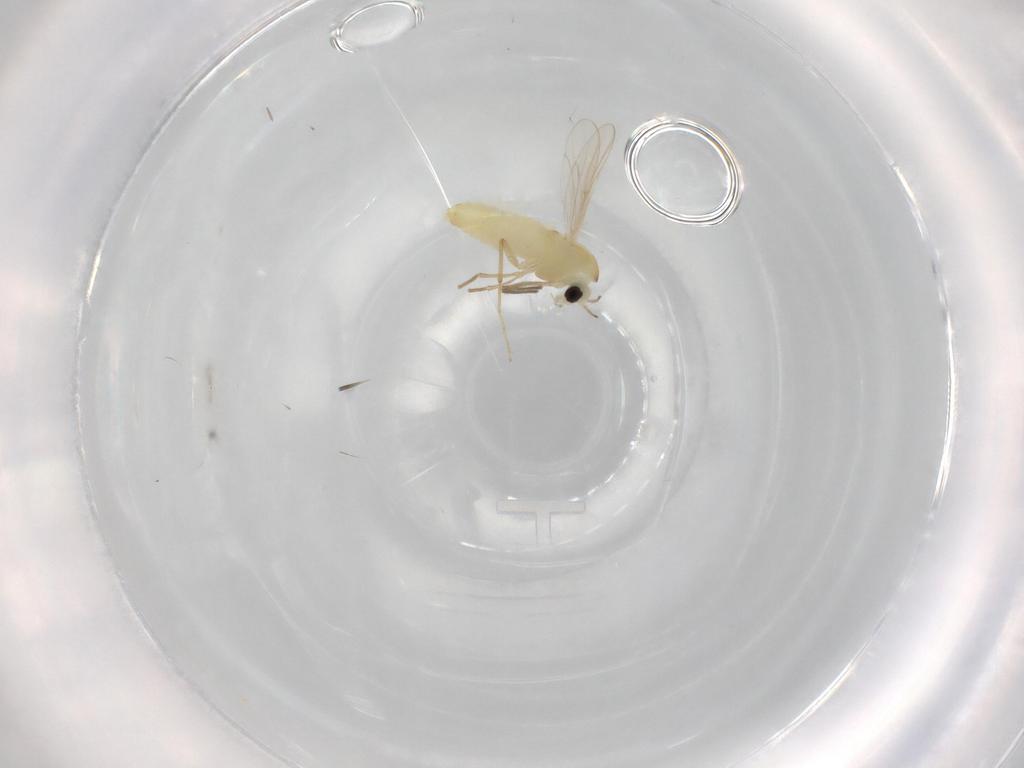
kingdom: Animalia
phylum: Arthropoda
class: Insecta
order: Diptera
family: Chironomidae
